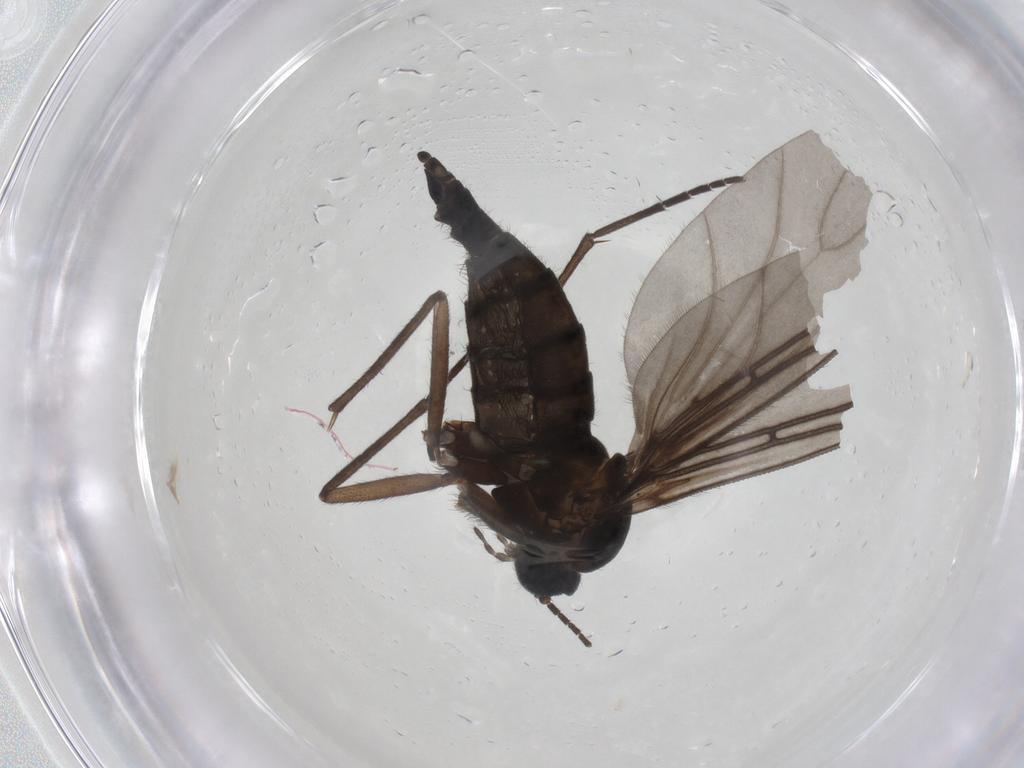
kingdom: Animalia
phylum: Arthropoda
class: Insecta
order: Diptera
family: Sciaridae
